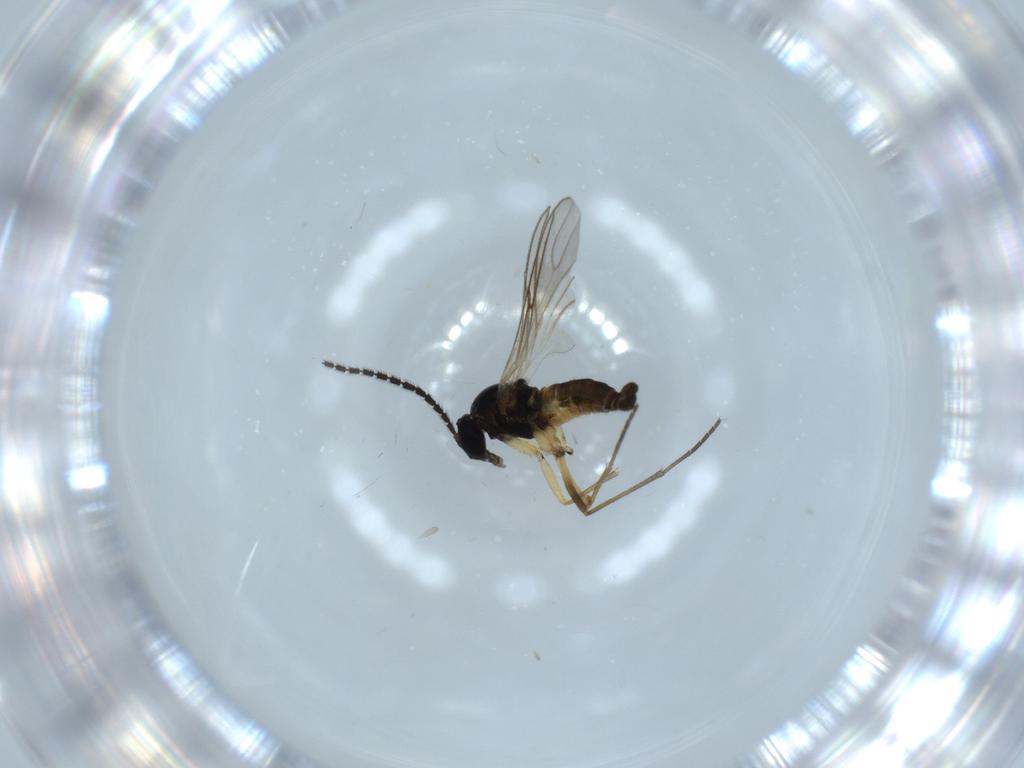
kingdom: Animalia
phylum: Arthropoda
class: Insecta
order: Diptera
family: Sciaridae
